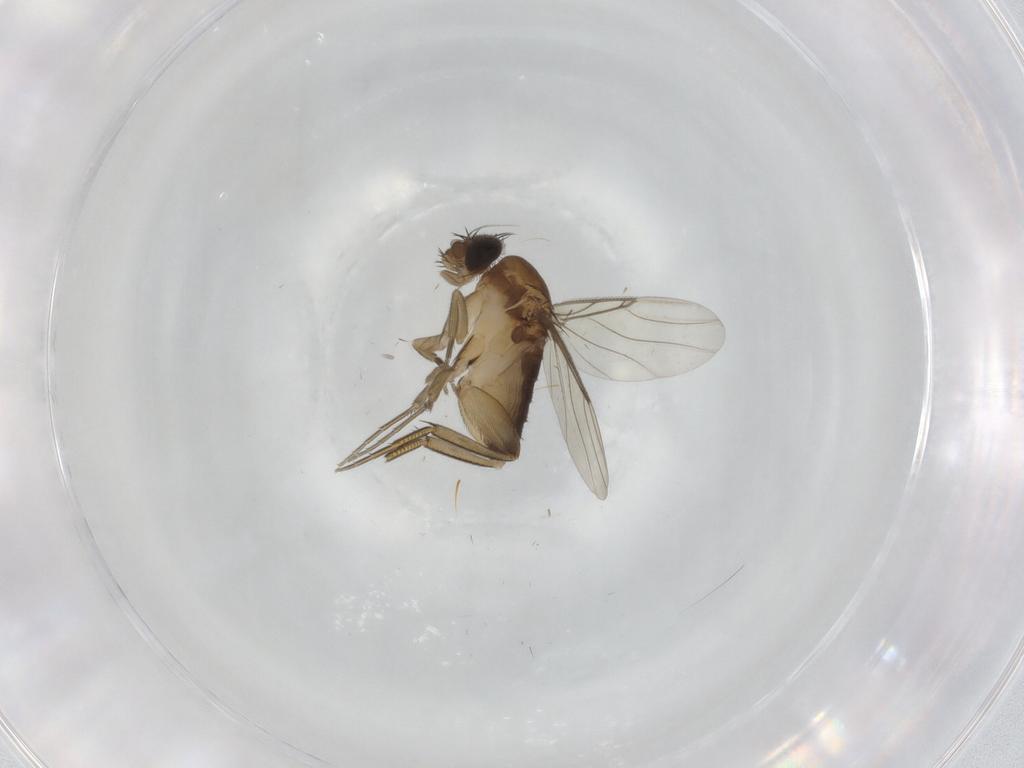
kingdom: Animalia
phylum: Arthropoda
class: Insecta
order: Diptera
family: Phoridae
